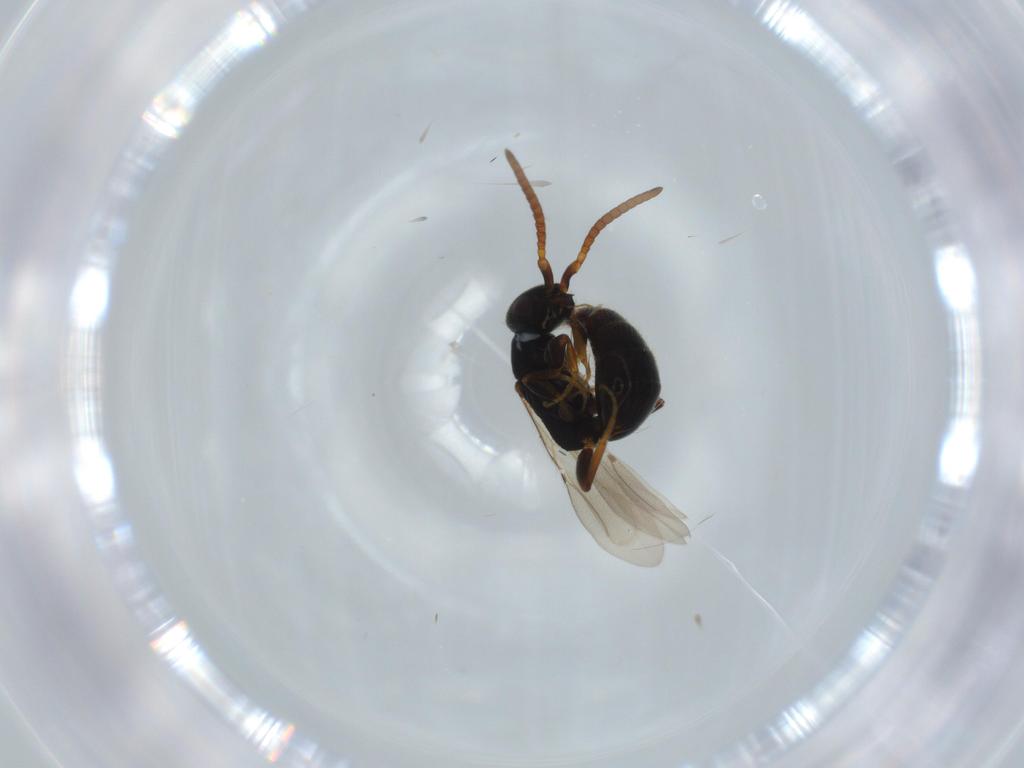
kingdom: Animalia
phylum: Arthropoda
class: Insecta
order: Hymenoptera
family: Bethylidae
